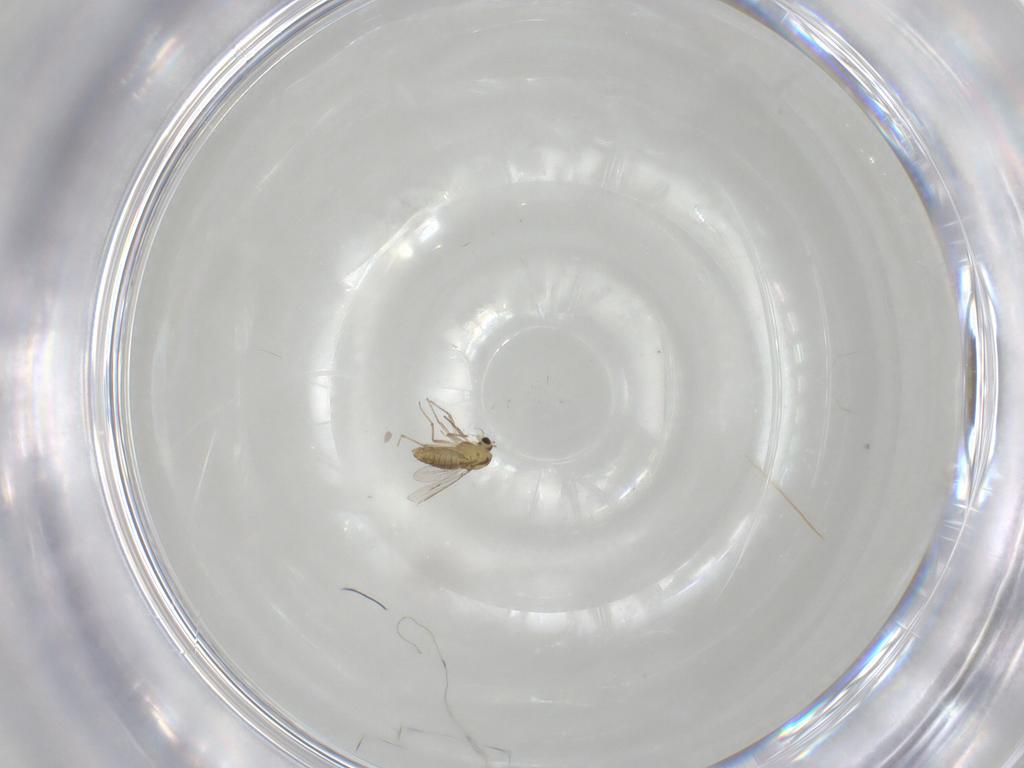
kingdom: Animalia
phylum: Arthropoda
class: Insecta
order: Diptera
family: Chironomidae
